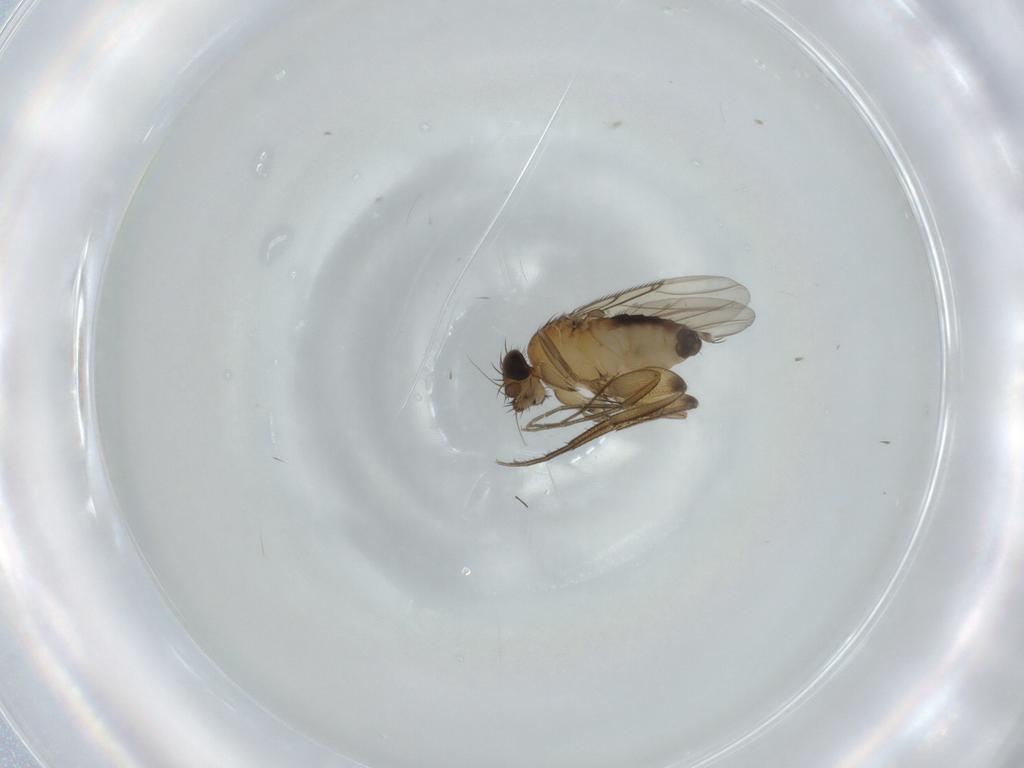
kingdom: Animalia
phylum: Arthropoda
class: Insecta
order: Diptera
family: Phoridae
